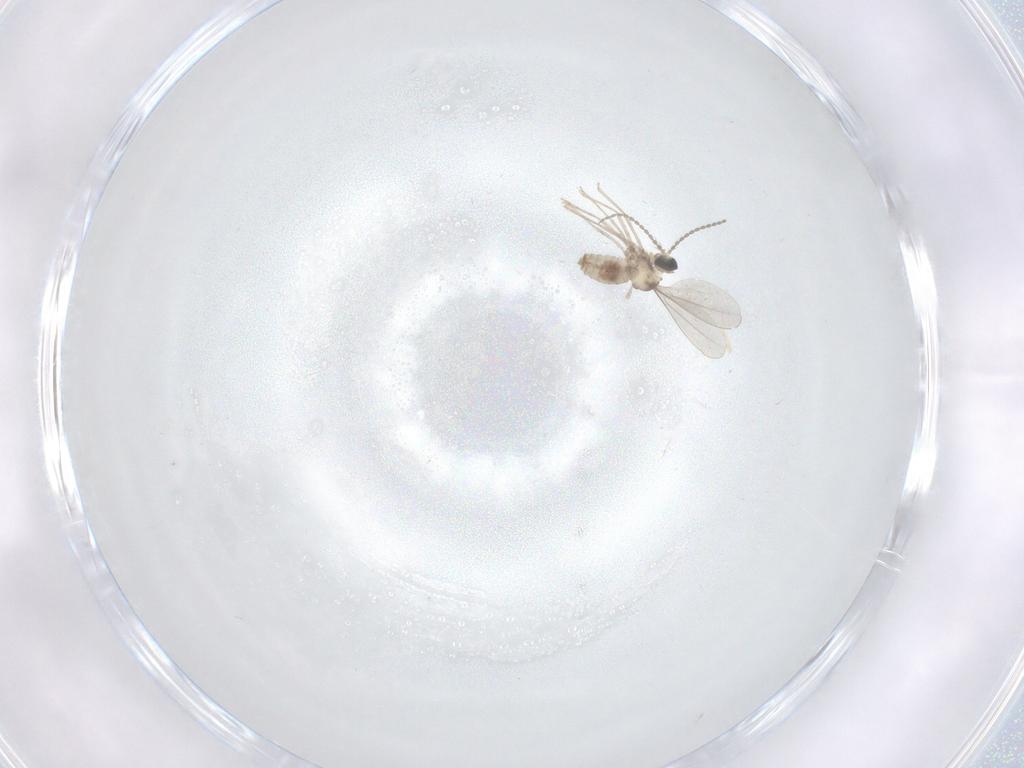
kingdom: Animalia
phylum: Arthropoda
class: Insecta
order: Diptera
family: Cecidomyiidae
